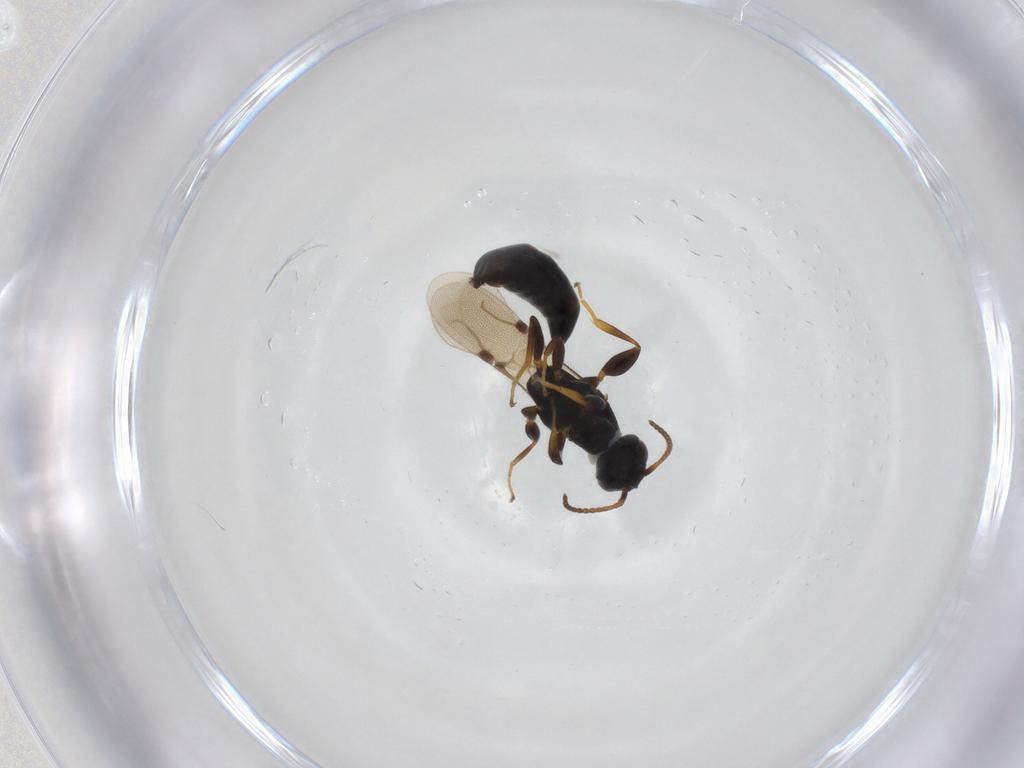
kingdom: Animalia
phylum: Arthropoda
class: Insecta
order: Hymenoptera
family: Bethylidae
